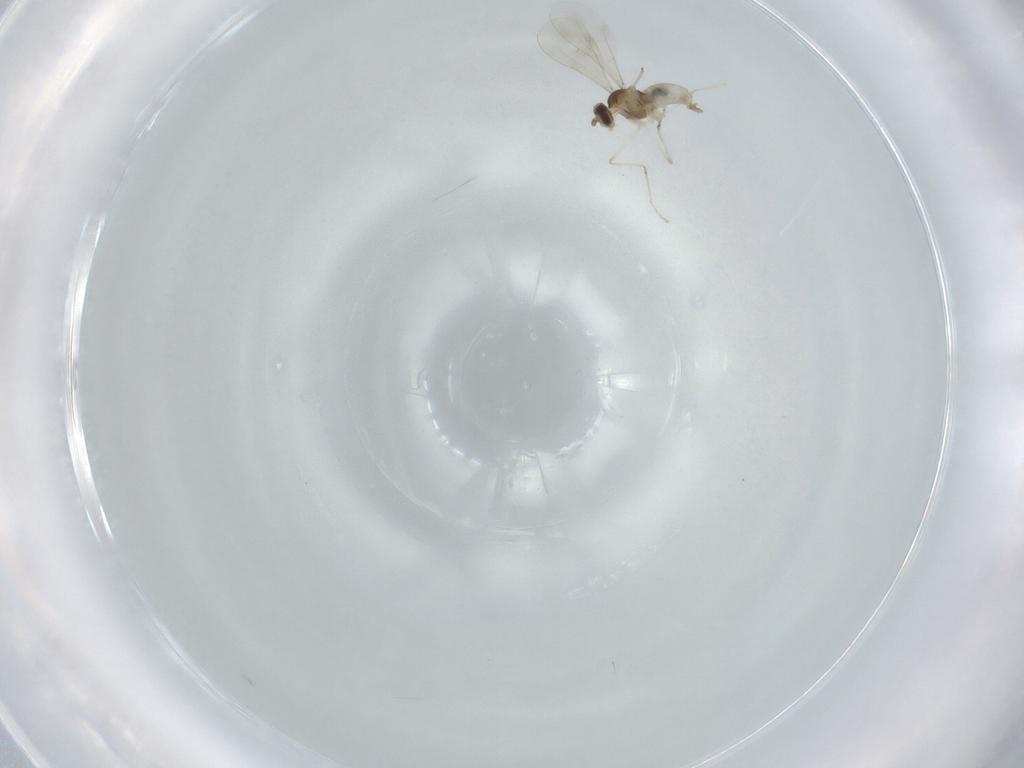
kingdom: Animalia
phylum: Arthropoda
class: Insecta
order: Diptera
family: Cecidomyiidae
